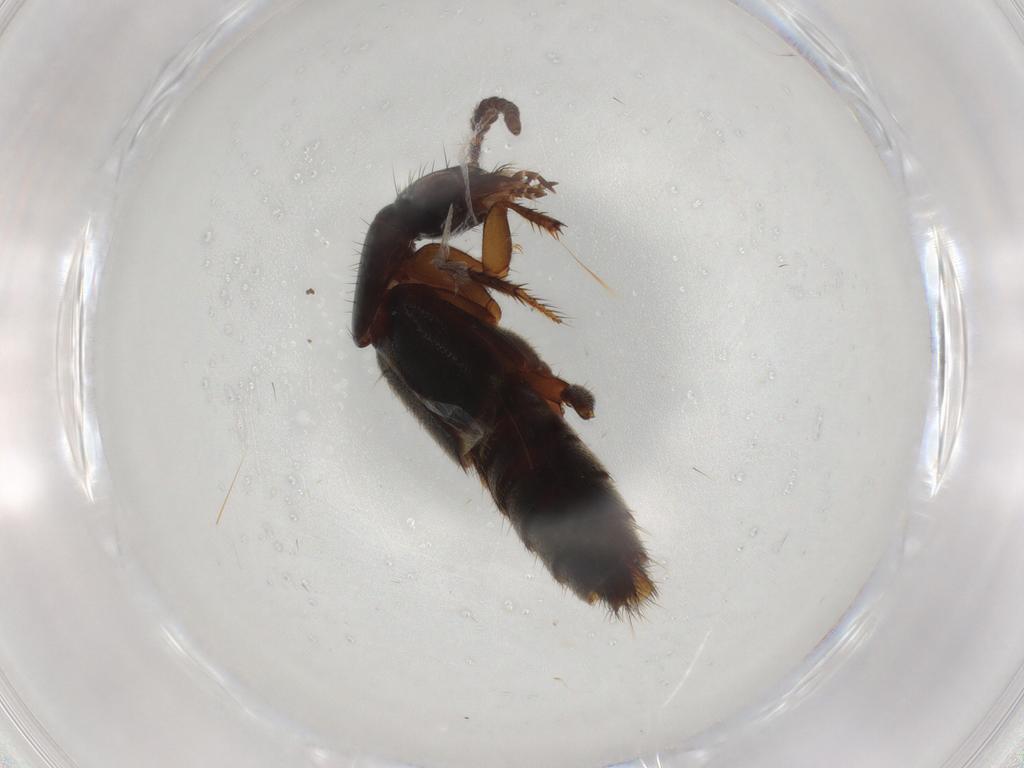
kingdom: Animalia
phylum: Arthropoda
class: Insecta
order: Coleoptera
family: Staphylinidae
